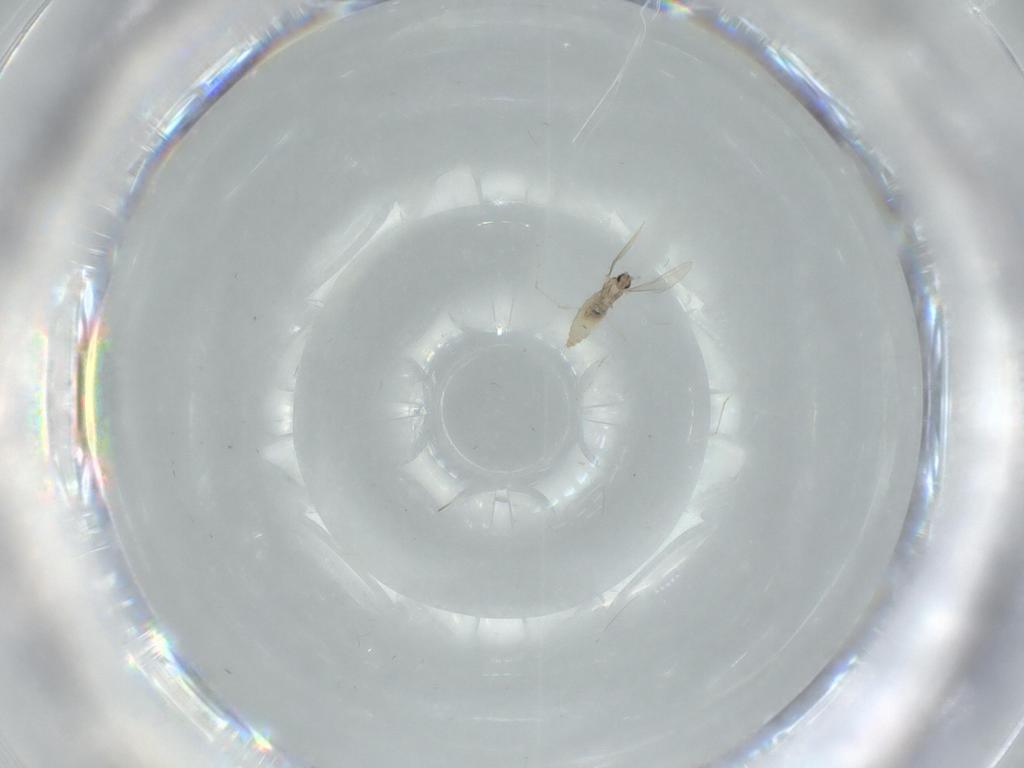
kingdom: Animalia
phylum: Arthropoda
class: Insecta
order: Diptera
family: Cecidomyiidae
